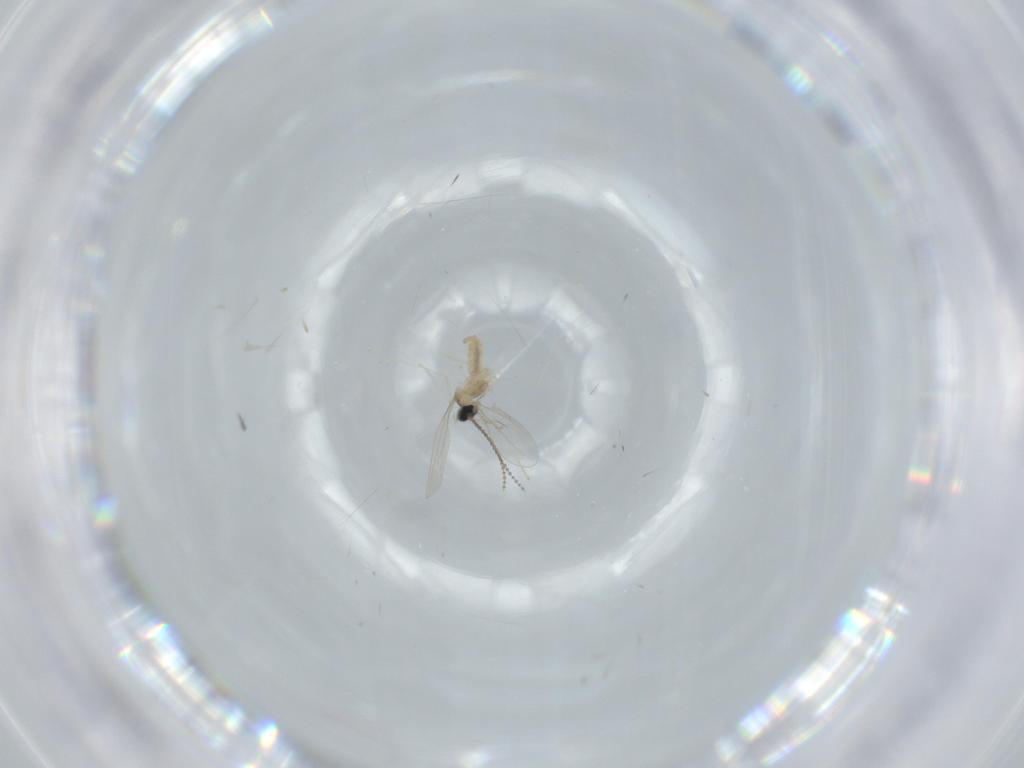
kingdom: Animalia
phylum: Arthropoda
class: Insecta
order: Diptera
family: Cecidomyiidae
